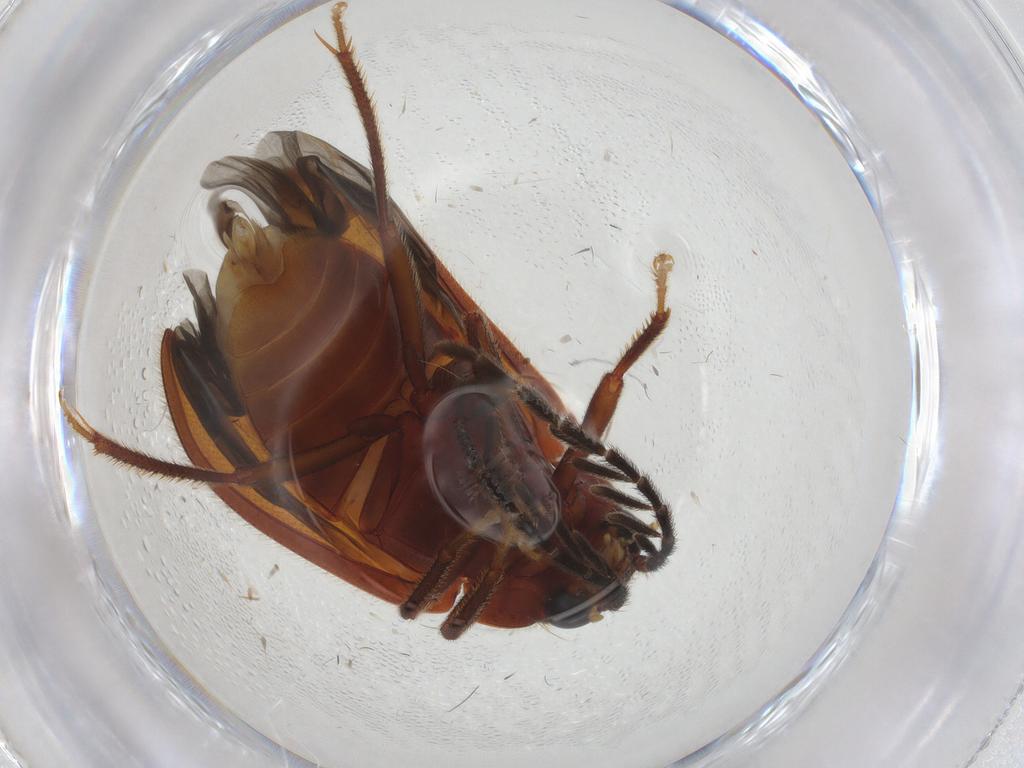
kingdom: Animalia
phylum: Arthropoda
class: Insecta
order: Coleoptera
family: Ptilodactylidae
